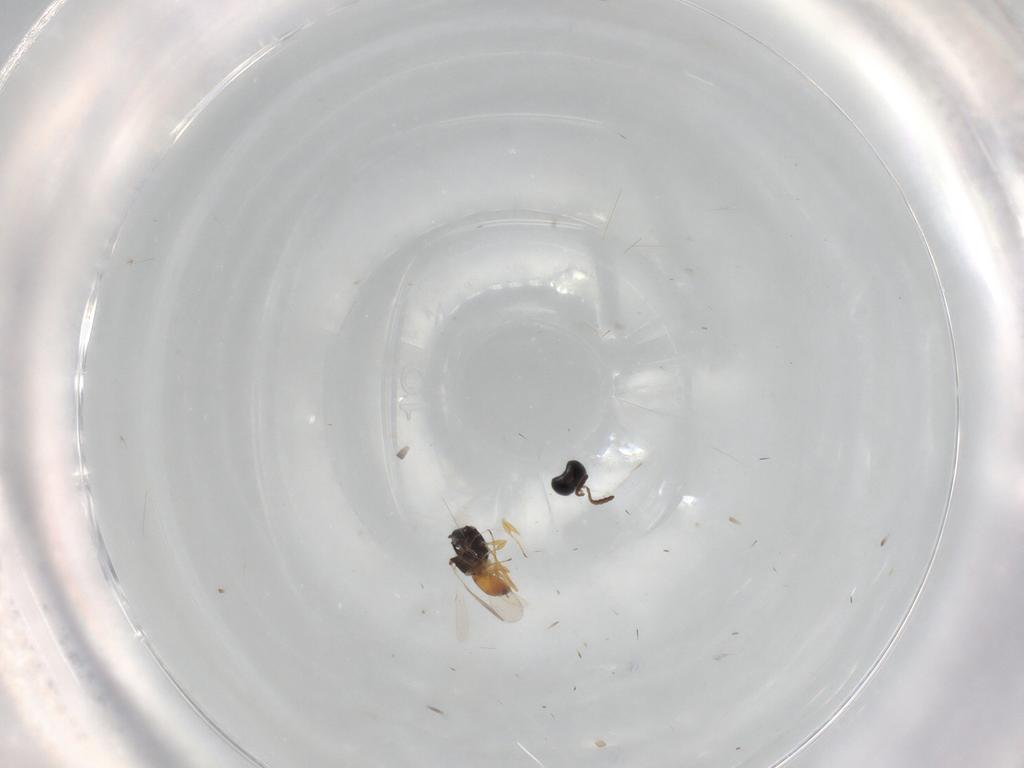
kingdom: Animalia
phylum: Arthropoda
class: Insecta
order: Hymenoptera
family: Scelionidae
